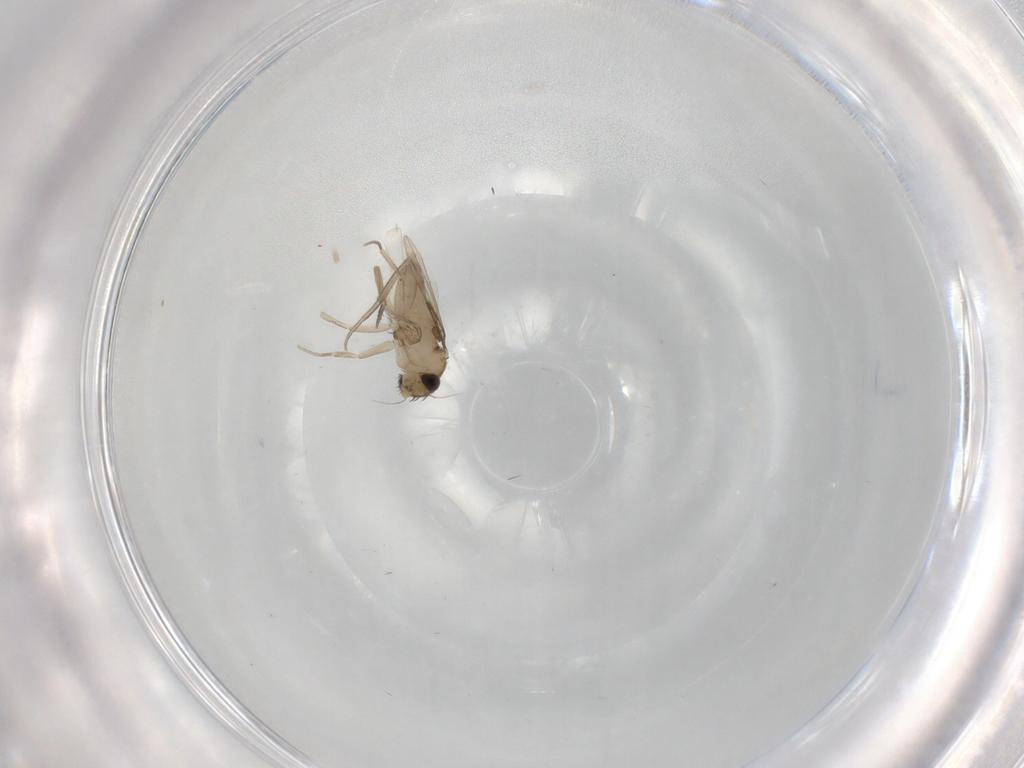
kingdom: Animalia
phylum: Arthropoda
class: Insecta
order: Diptera
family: Phoridae
